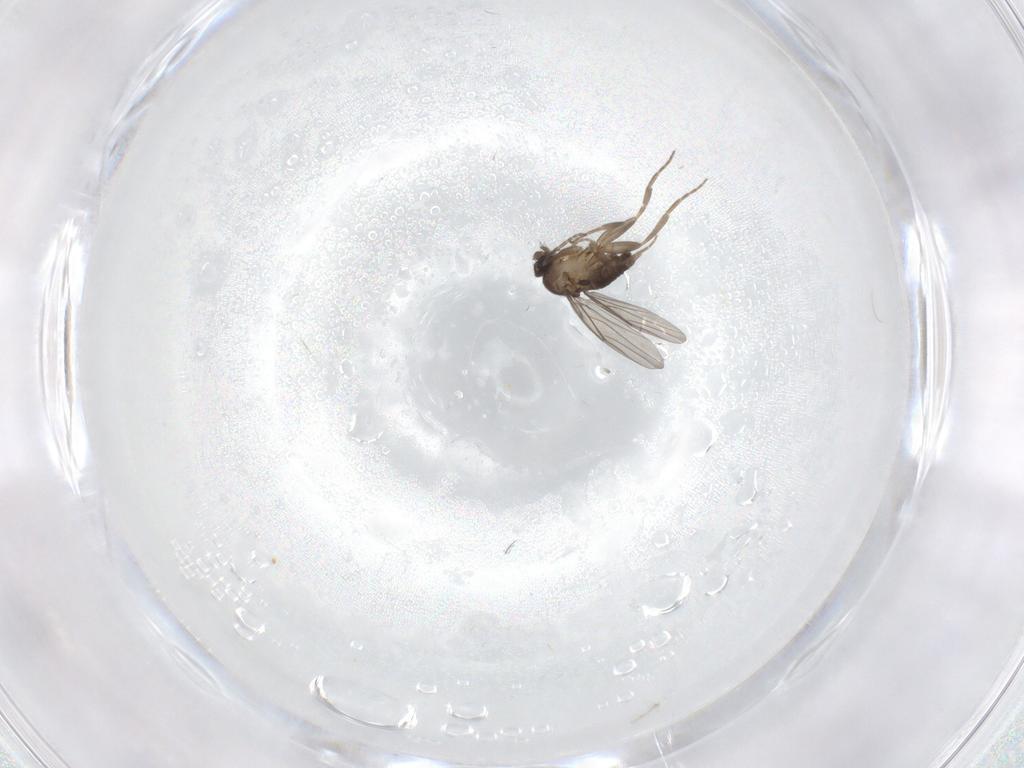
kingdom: Animalia
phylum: Arthropoda
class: Insecta
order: Diptera
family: Phoridae
